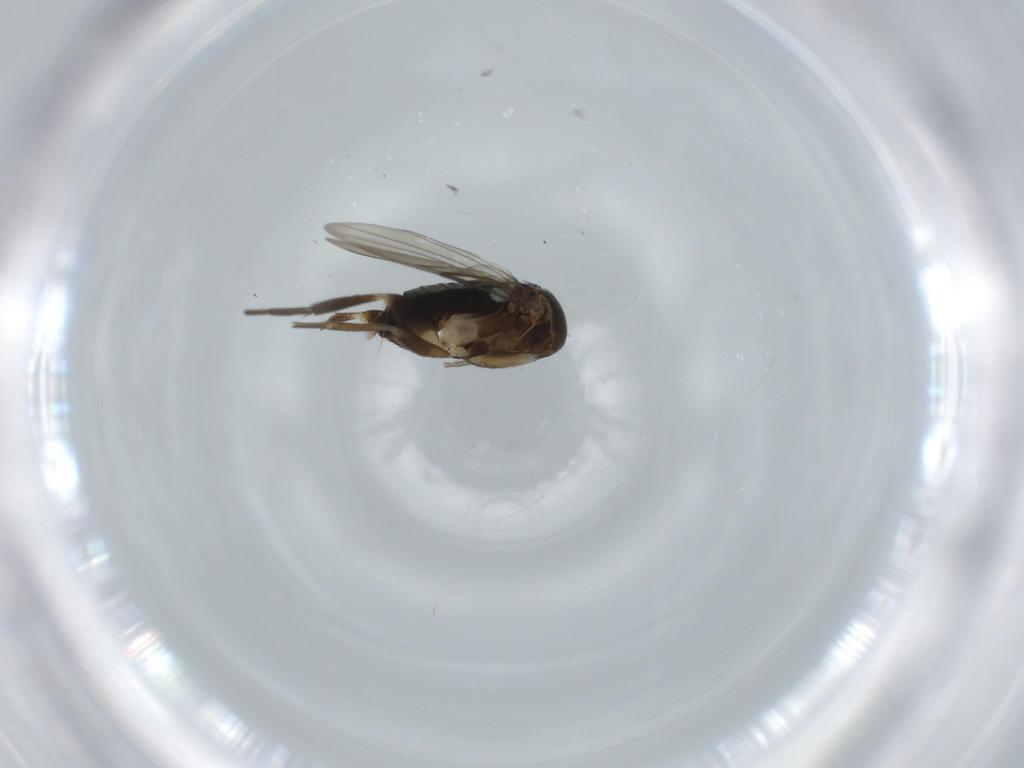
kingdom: Animalia
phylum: Arthropoda
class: Insecta
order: Diptera
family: Phoridae
